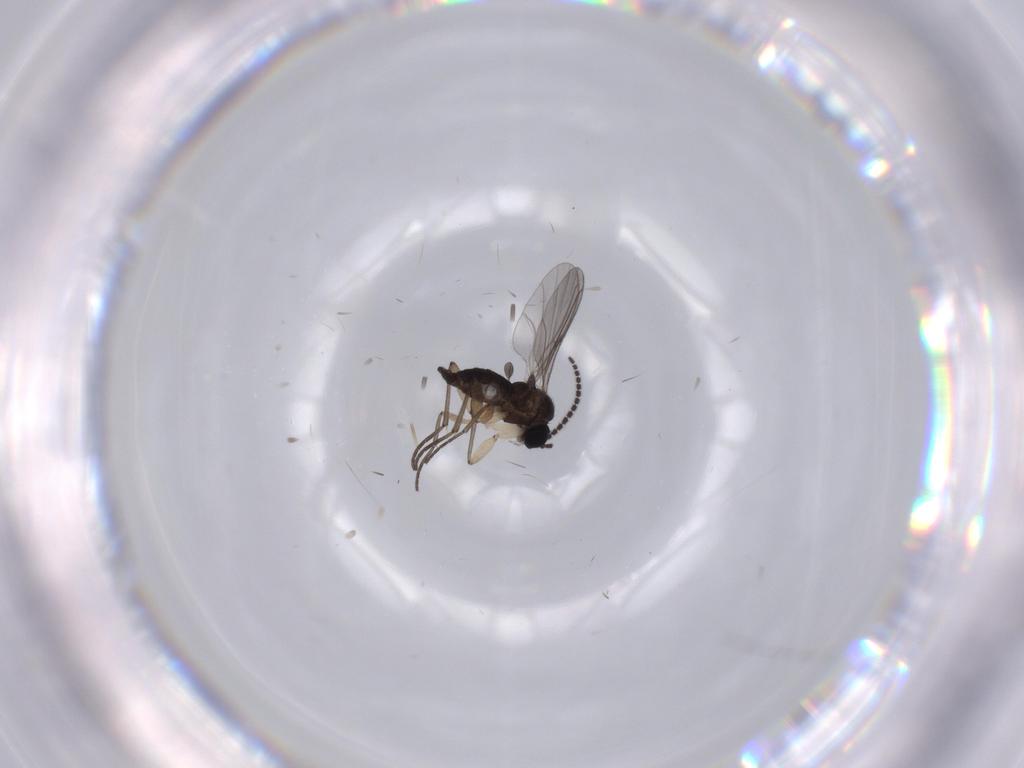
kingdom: Animalia
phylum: Arthropoda
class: Insecta
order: Diptera
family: Sciaridae
